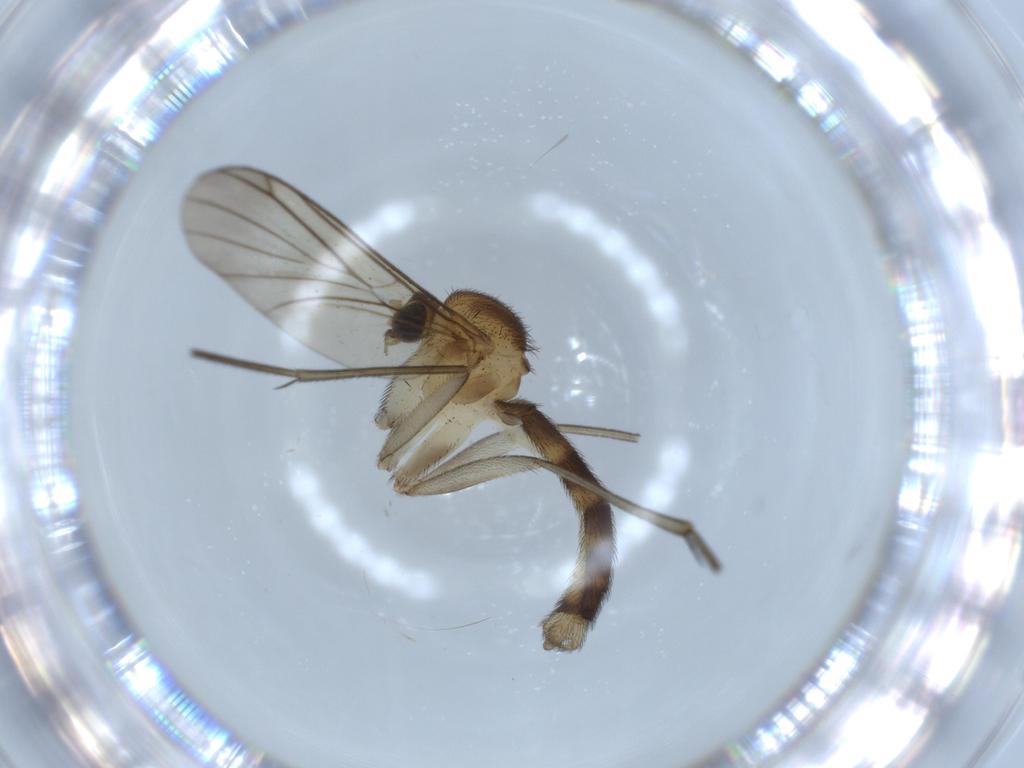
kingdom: Animalia
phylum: Arthropoda
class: Insecta
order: Diptera
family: Mycetophilidae
